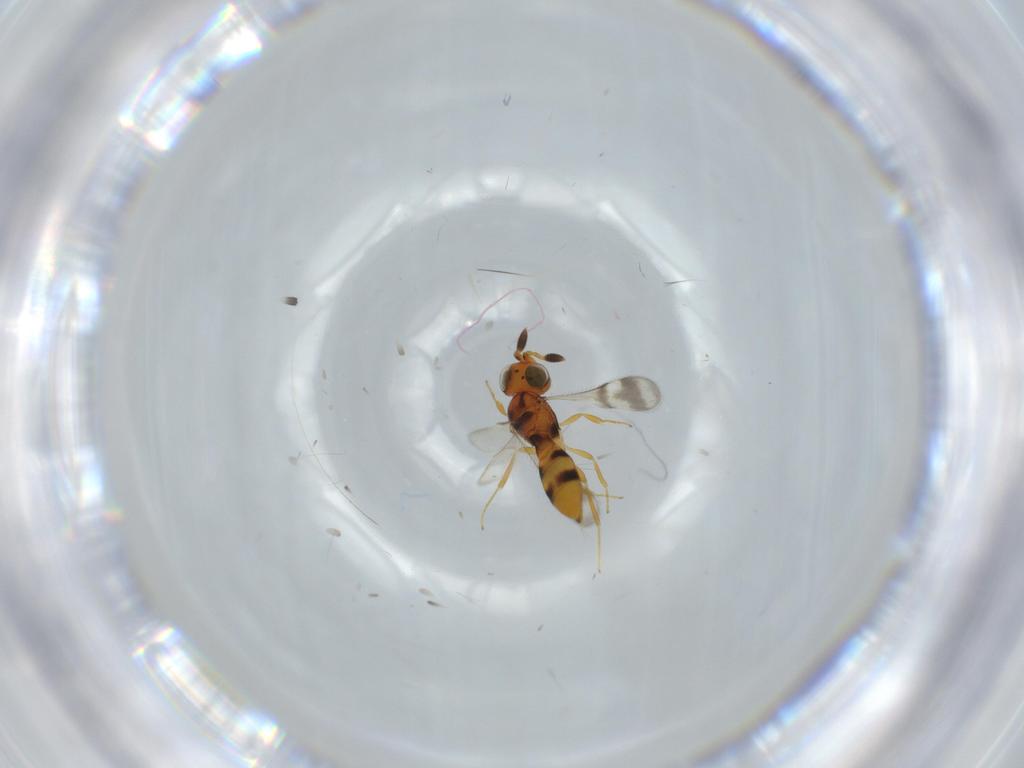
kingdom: Animalia
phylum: Arthropoda
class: Insecta
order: Hymenoptera
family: Scelionidae
